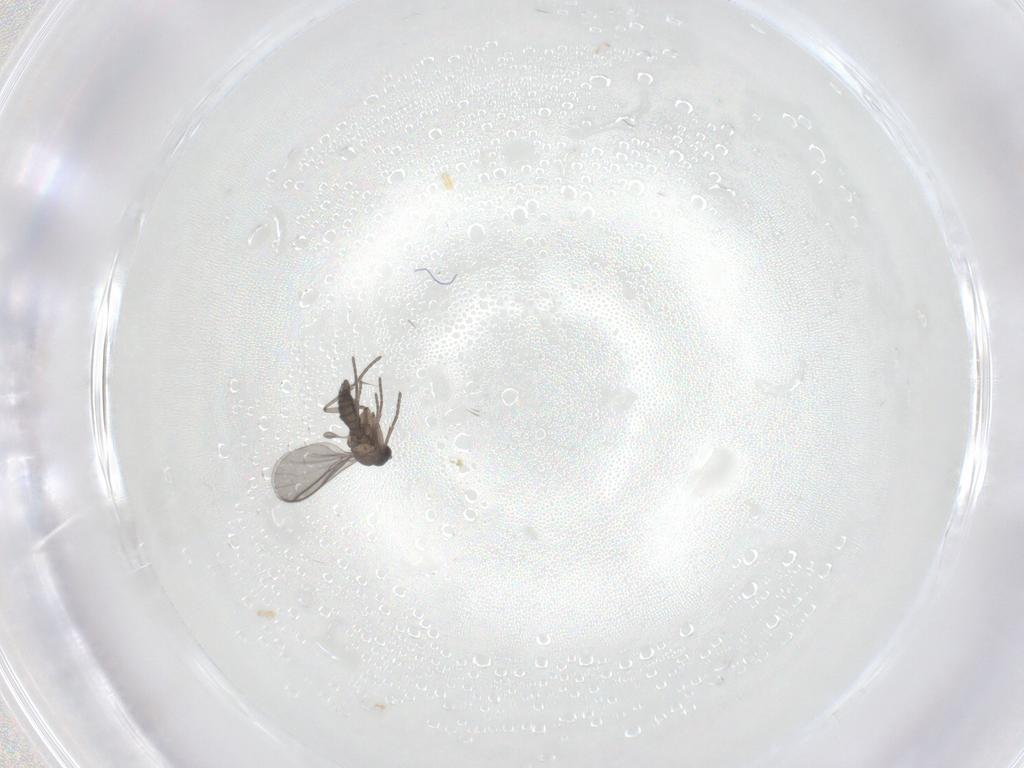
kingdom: Animalia
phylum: Arthropoda
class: Insecta
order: Diptera
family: Cecidomyiidae
